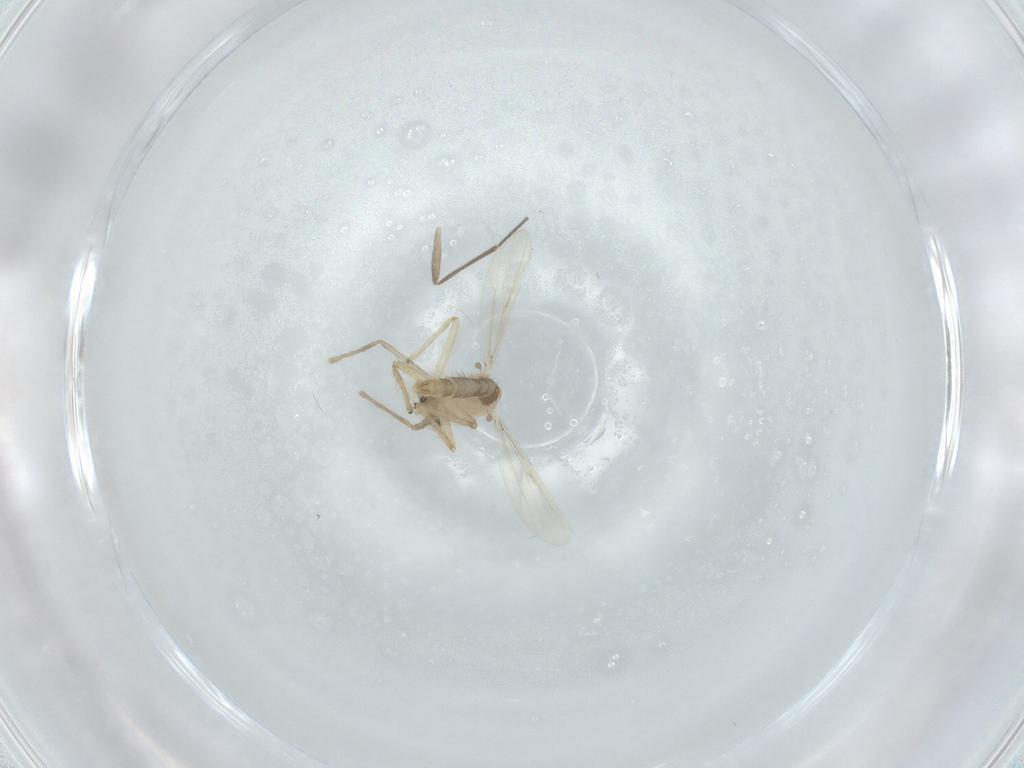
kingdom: Animalia
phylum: Arthropoda
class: Insecta
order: Diptera
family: Chironomidae
